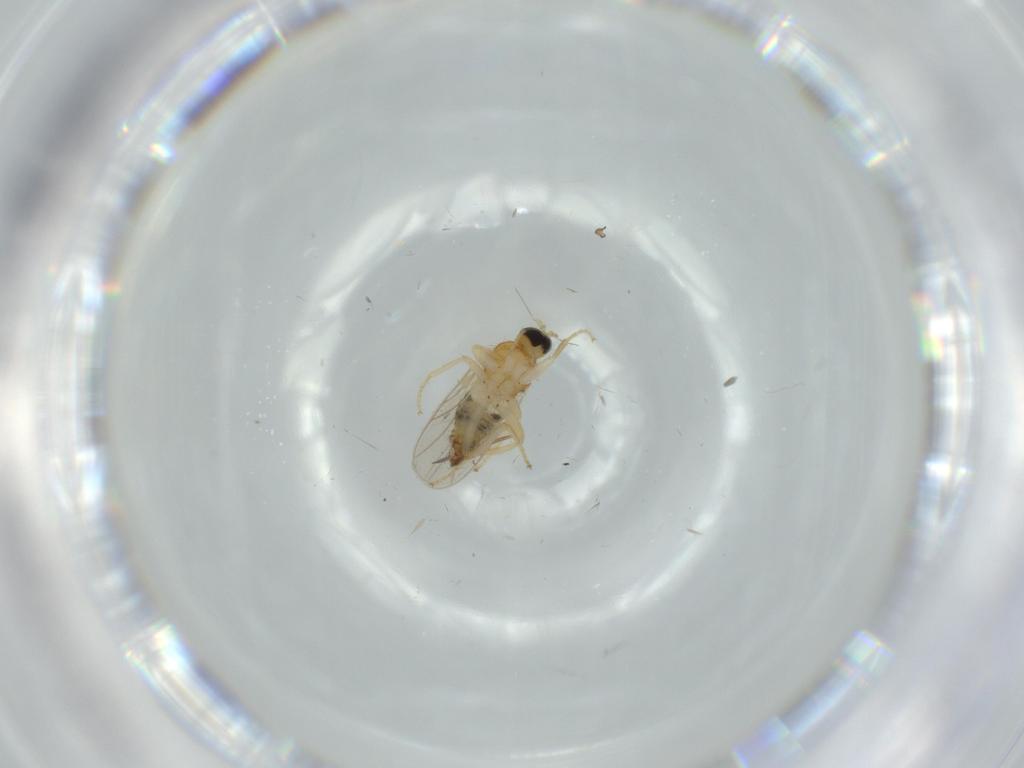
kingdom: Animalia
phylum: Arthropoda
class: Insecta
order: Diptera
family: Hybotidae
